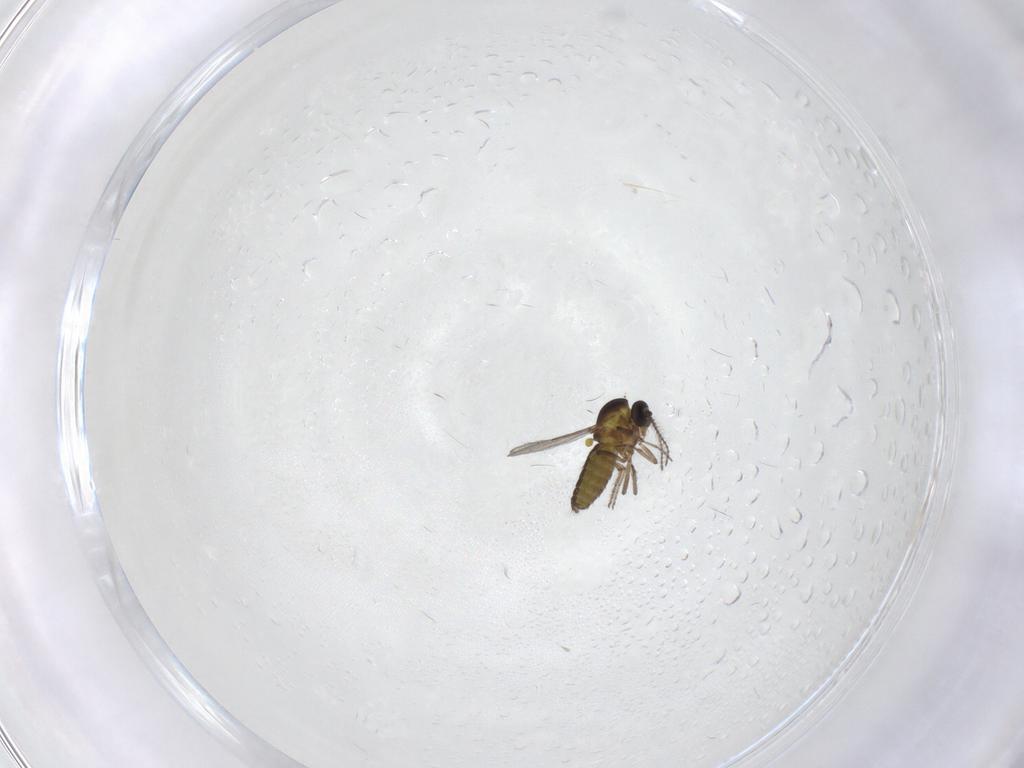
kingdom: Animalia
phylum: Arthropoda
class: Insecta
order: Diptera
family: Ceratopogonidae
